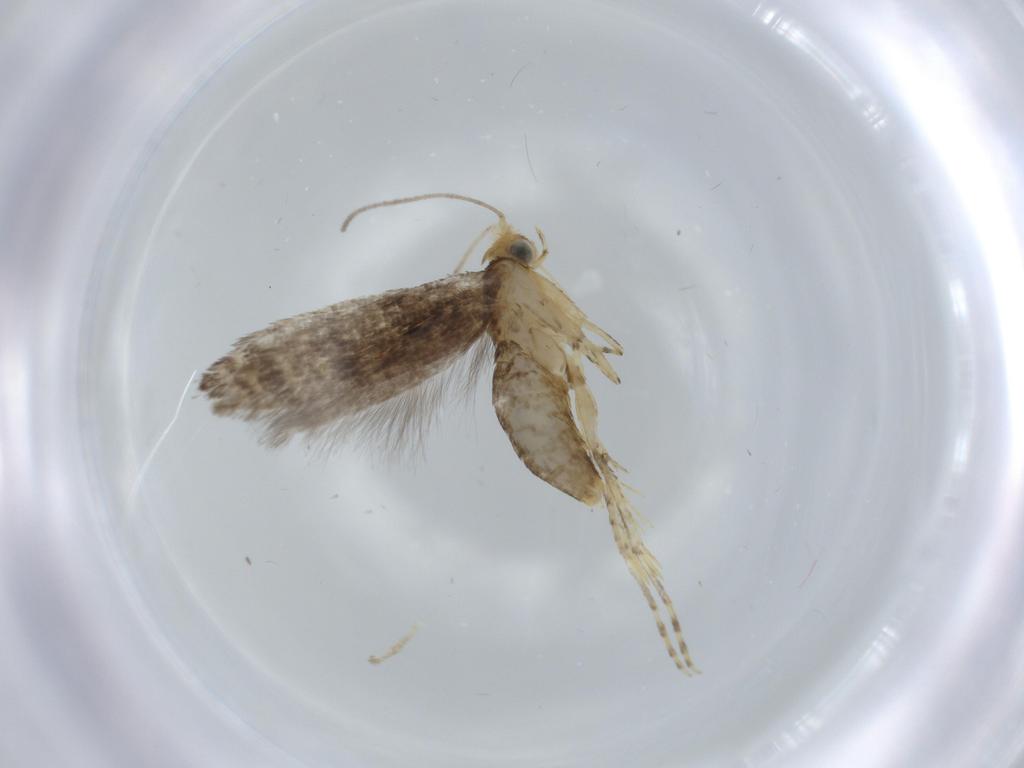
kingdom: Animalia
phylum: Arthropoda
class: Insecta
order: Lepidoptera
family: Argyresthiidae
